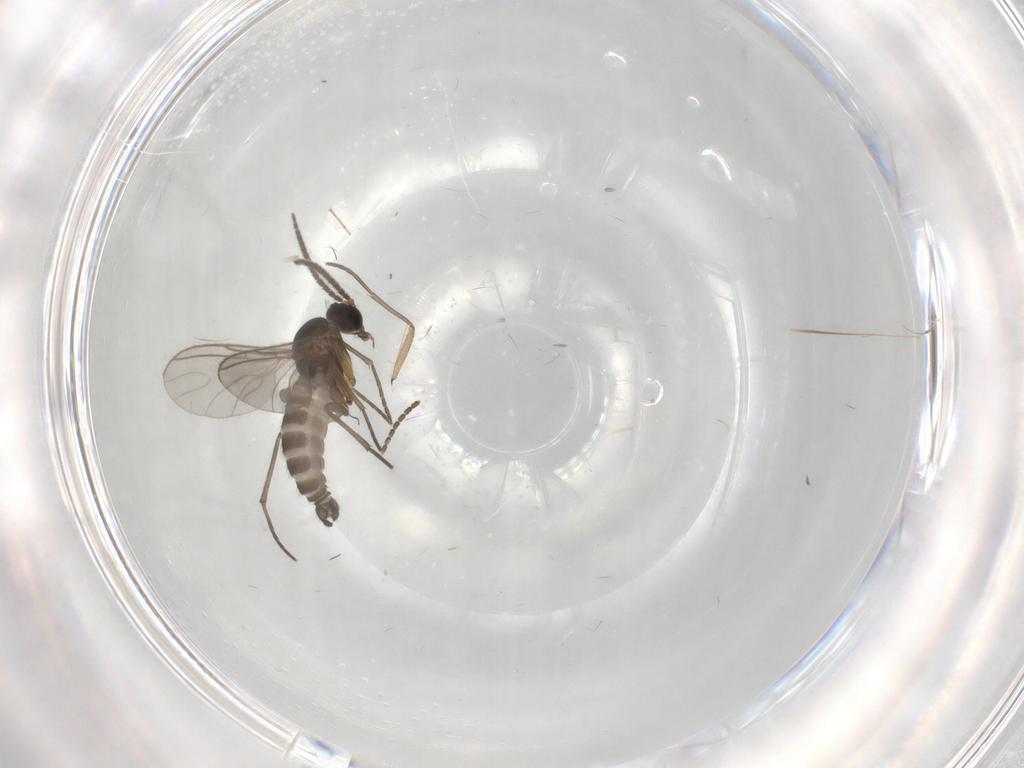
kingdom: Animalia
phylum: Arthropoda
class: Insecta
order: Diptera
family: Sciaridae
